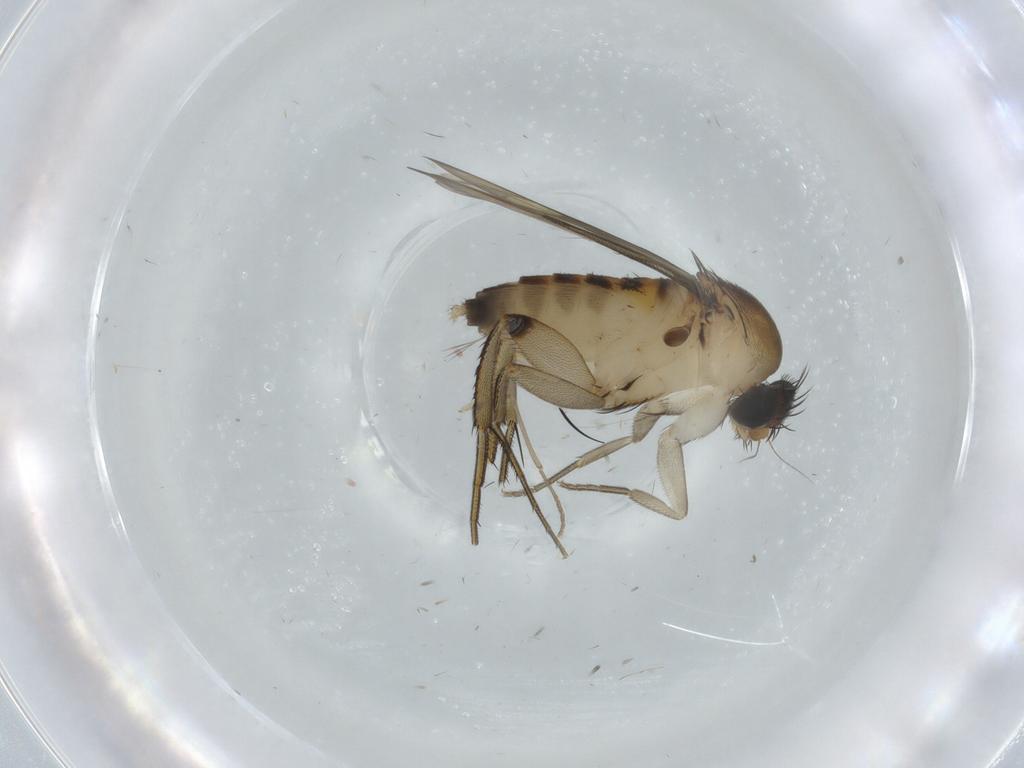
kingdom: Animalia
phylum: Arthropoda
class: Insecta
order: Diptera
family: Phoridae
